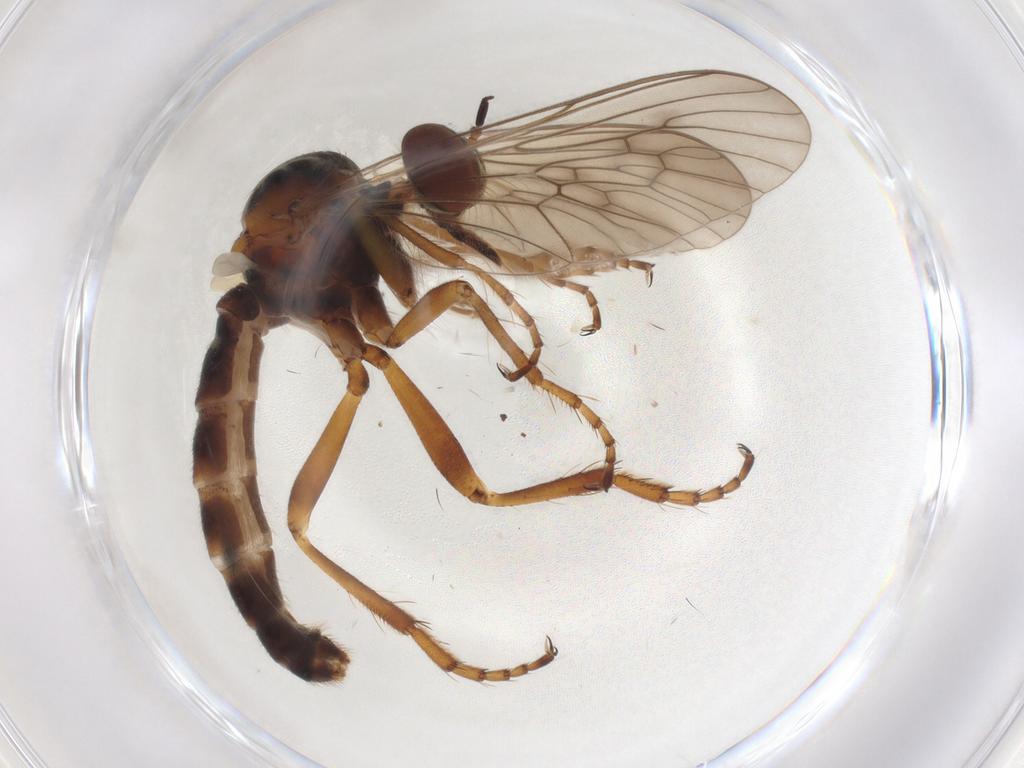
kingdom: Animalia
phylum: Arthropoda
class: Insecta
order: Diptera
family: Asilidae
